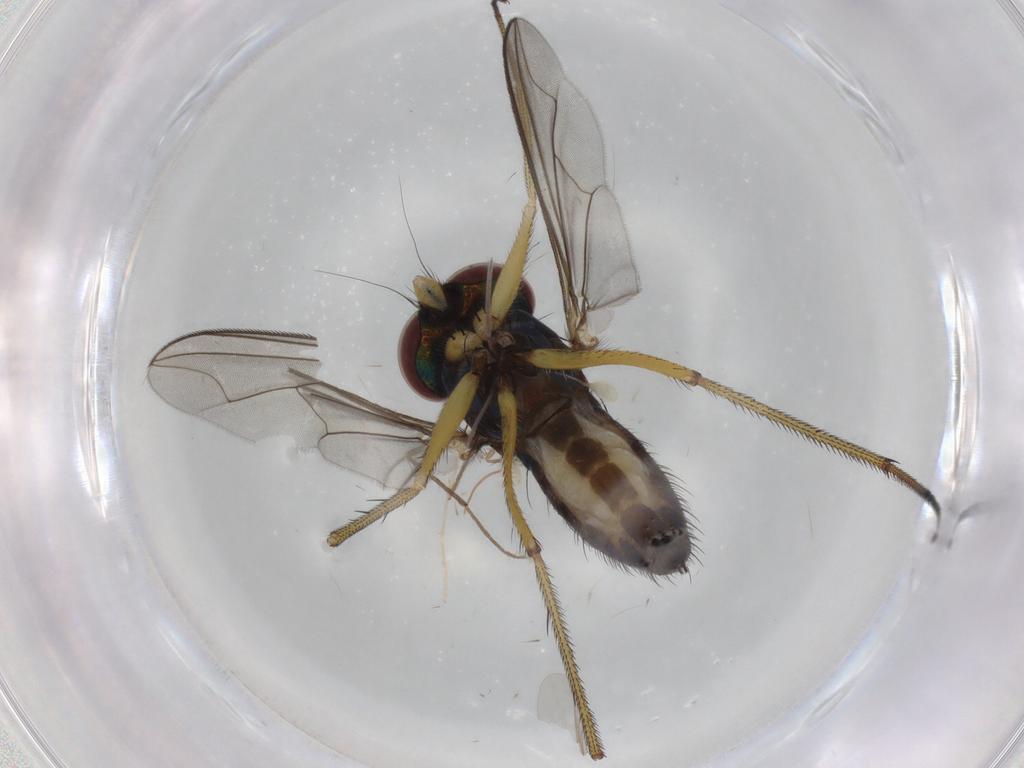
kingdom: Animalia
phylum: Arthropoda
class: Insecta
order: Diptera
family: Dolichopodidae
